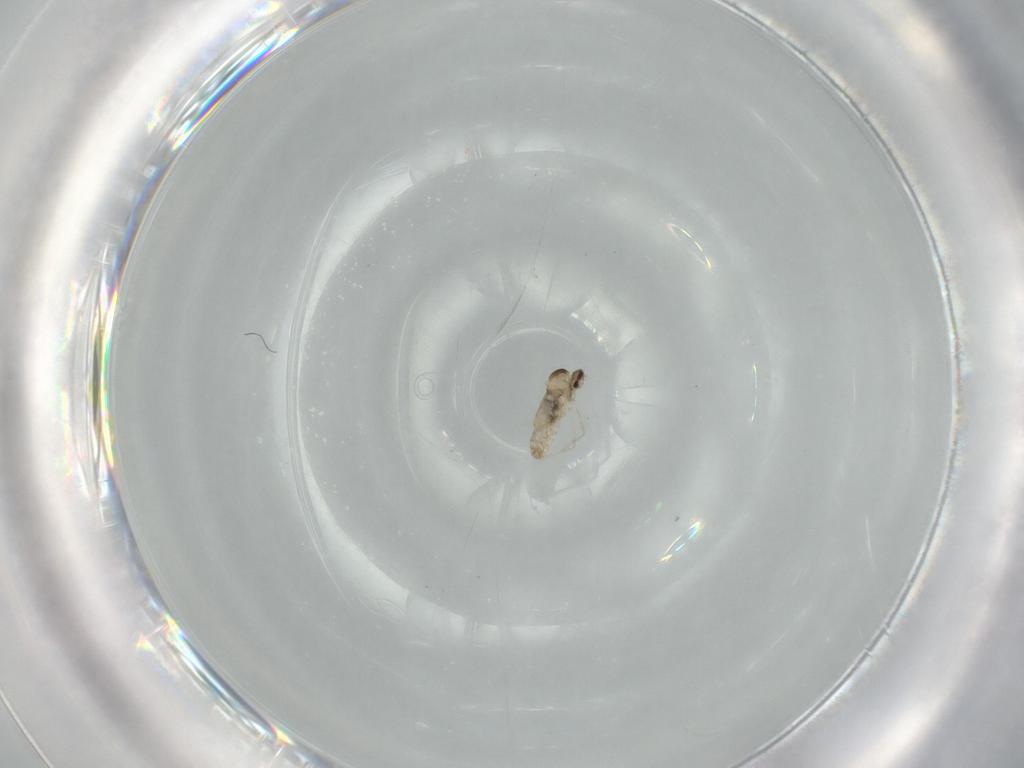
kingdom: Animalia
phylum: Arthropoda
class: Insecta
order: Diptera
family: Cecidomyiidae
